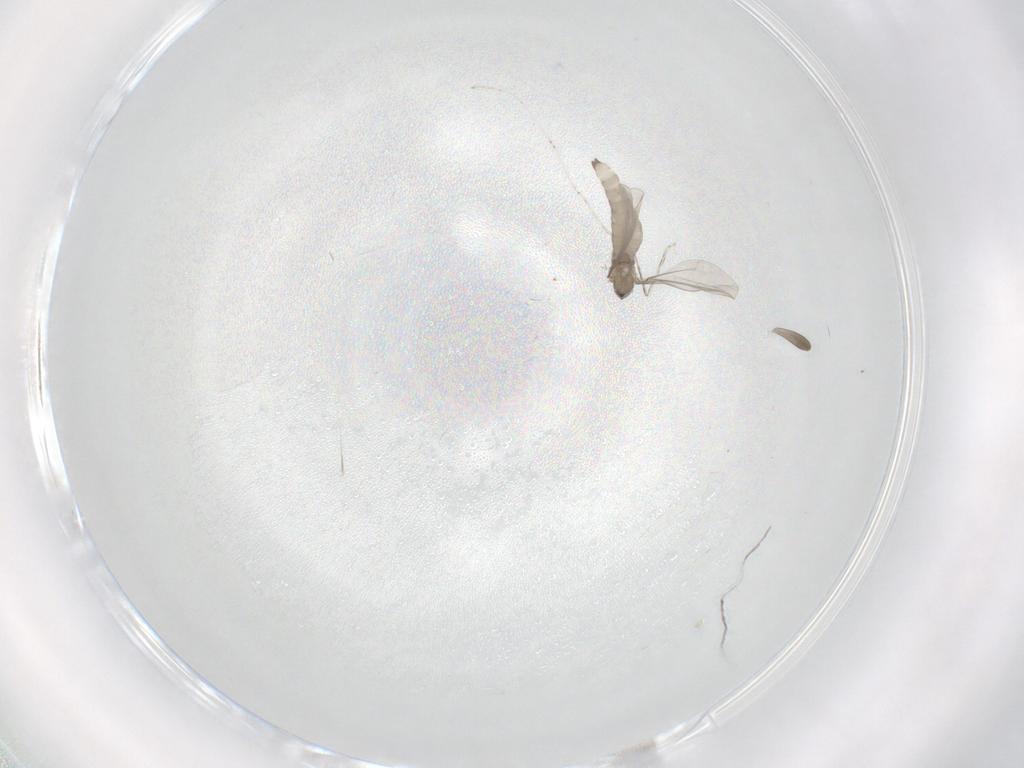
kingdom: Animalia
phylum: Arthropoda
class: Insecta
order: Diptera
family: Cecidomyiidae
